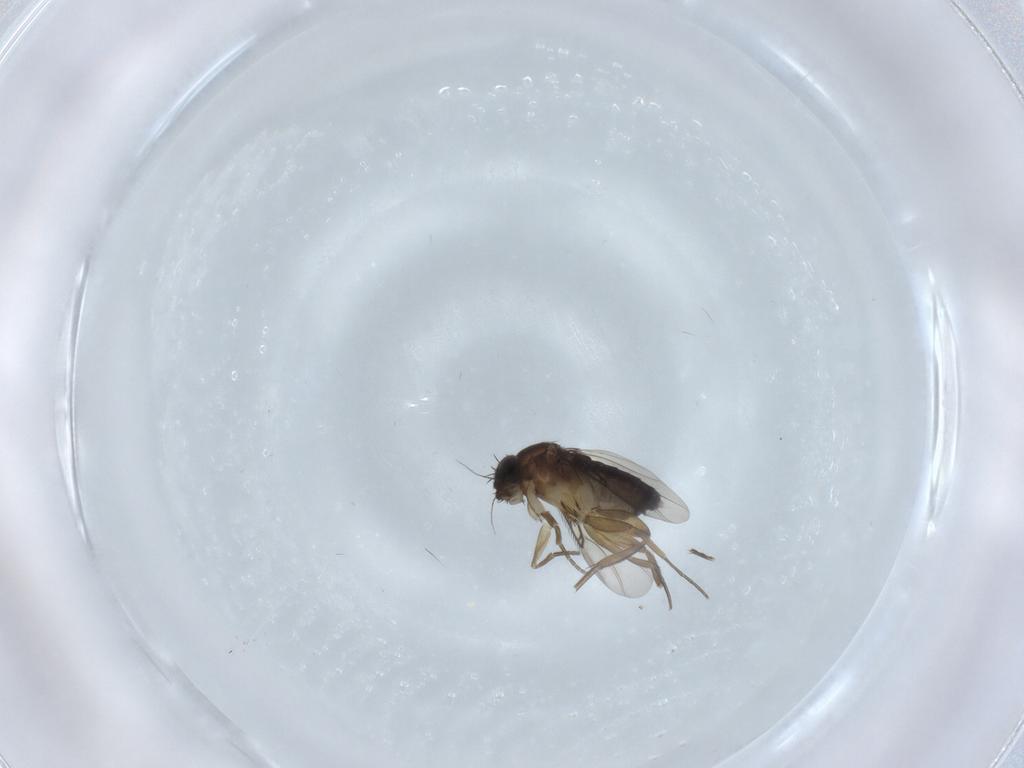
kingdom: Animalia
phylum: Arthropoda
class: Insecta
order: Diptera
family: Phoridae
